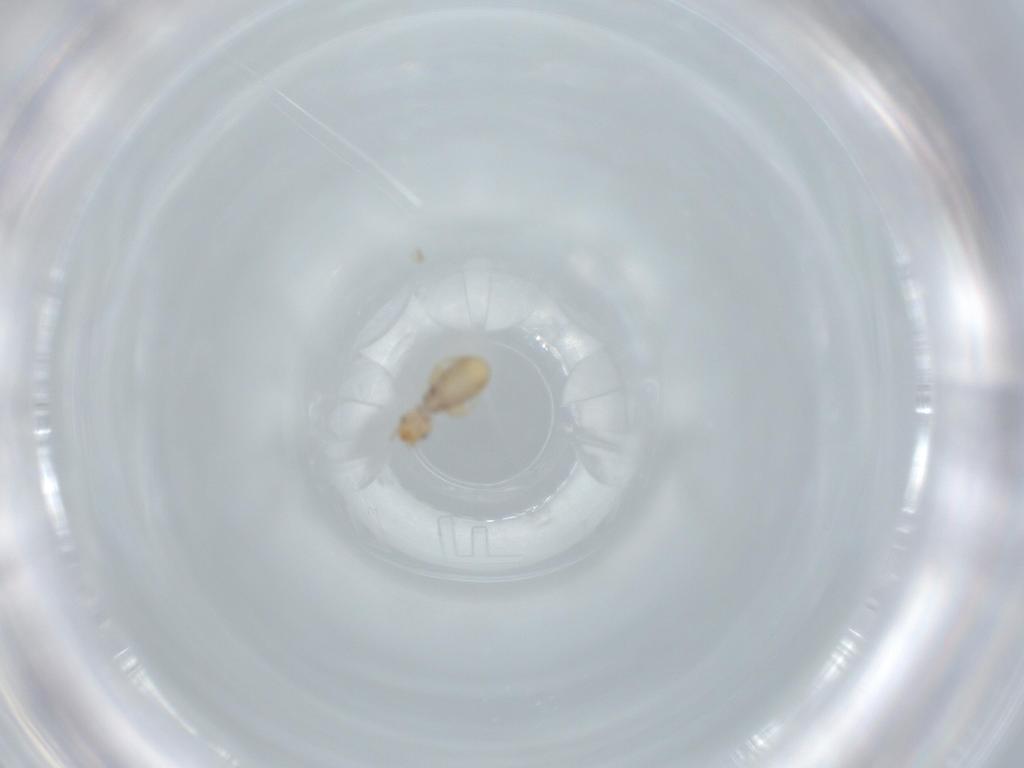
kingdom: Animalia
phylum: Arthropoda
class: Insecta
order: Psocodea
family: Liposcelididae
